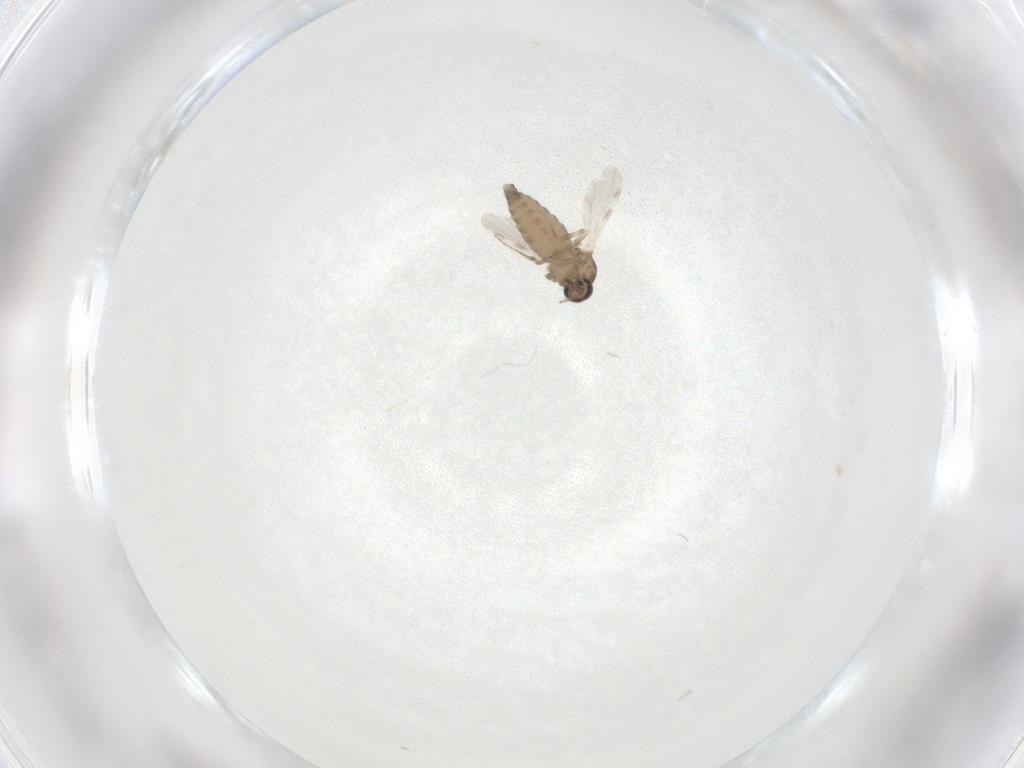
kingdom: Animalia
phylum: Arthropoda
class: Insecta
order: Diptera
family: Ceratopogonidae
